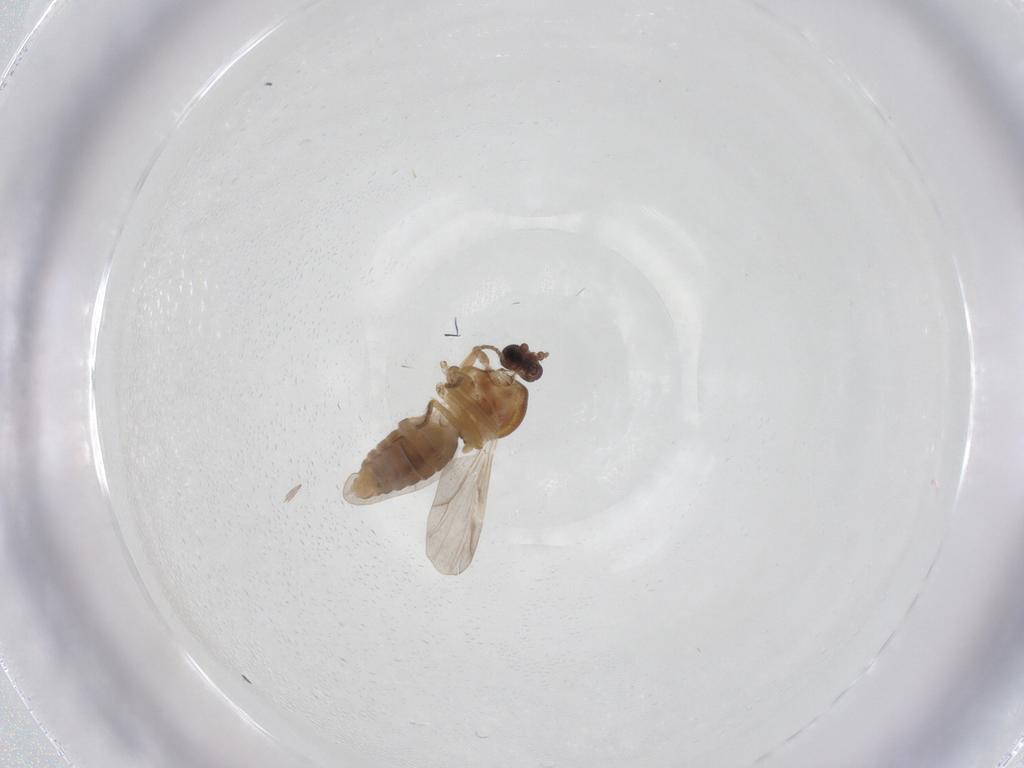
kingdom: Animalia
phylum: Arthropoda
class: Insecta
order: Diptera
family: Ceratopogonidae
